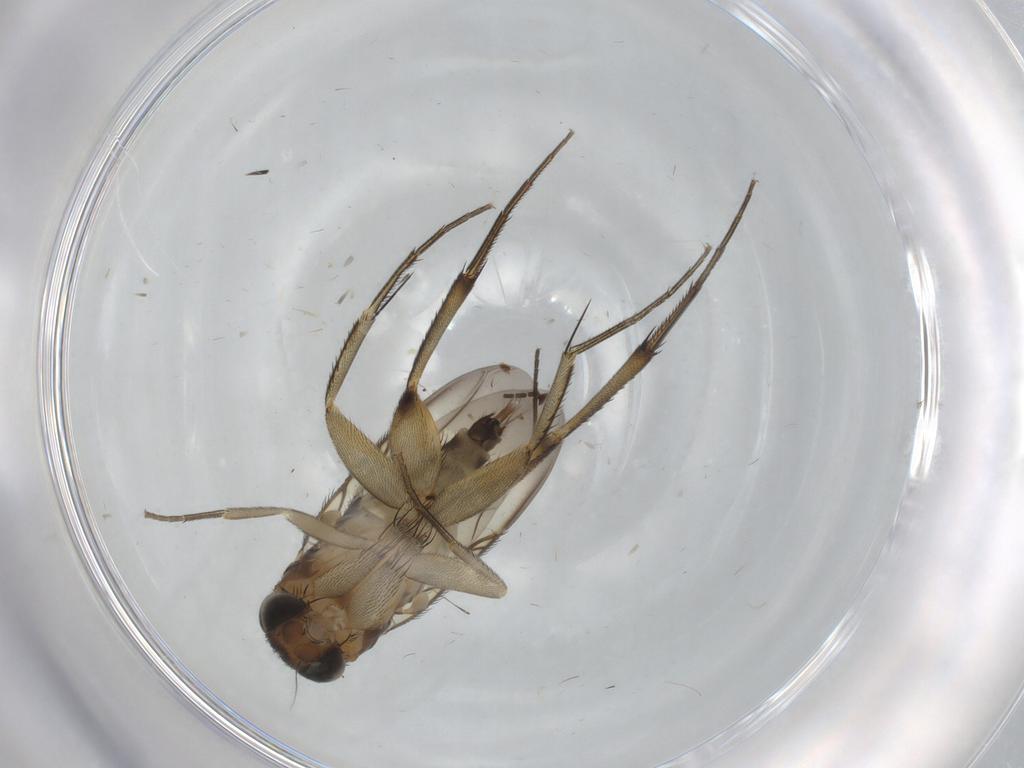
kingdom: Animalia
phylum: Arthropoda
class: Insecta
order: Diptera
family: Phoridae
